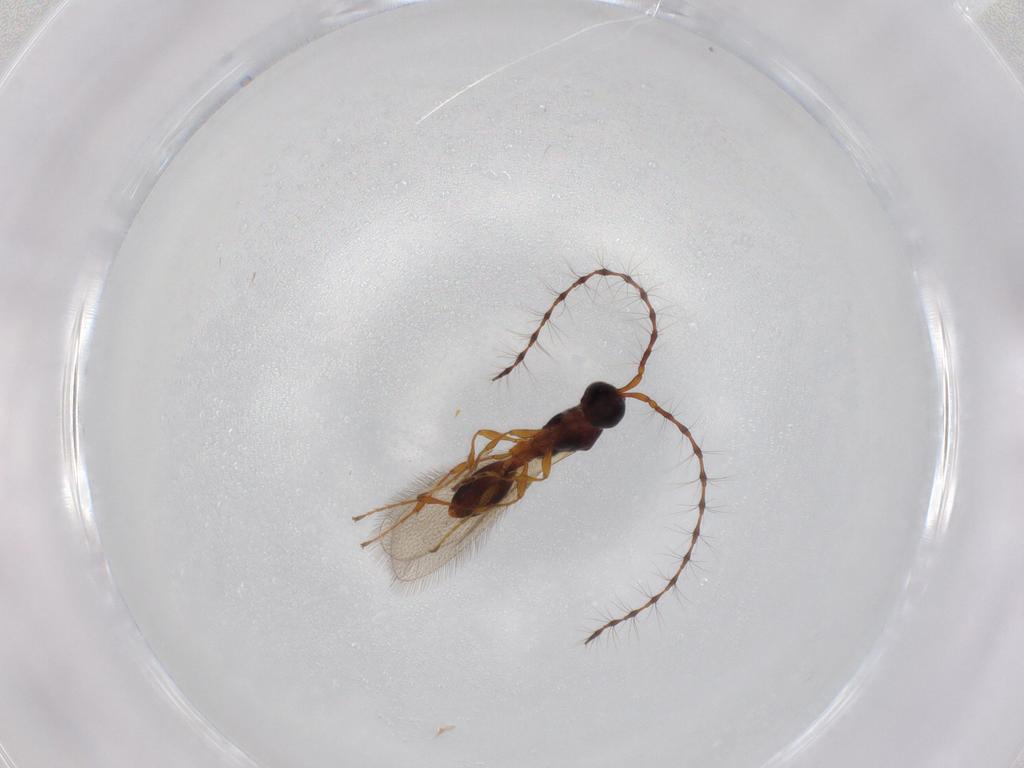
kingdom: Animalia
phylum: Arthropoda
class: Insecta
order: Hymenoptera
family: Diapriidae
